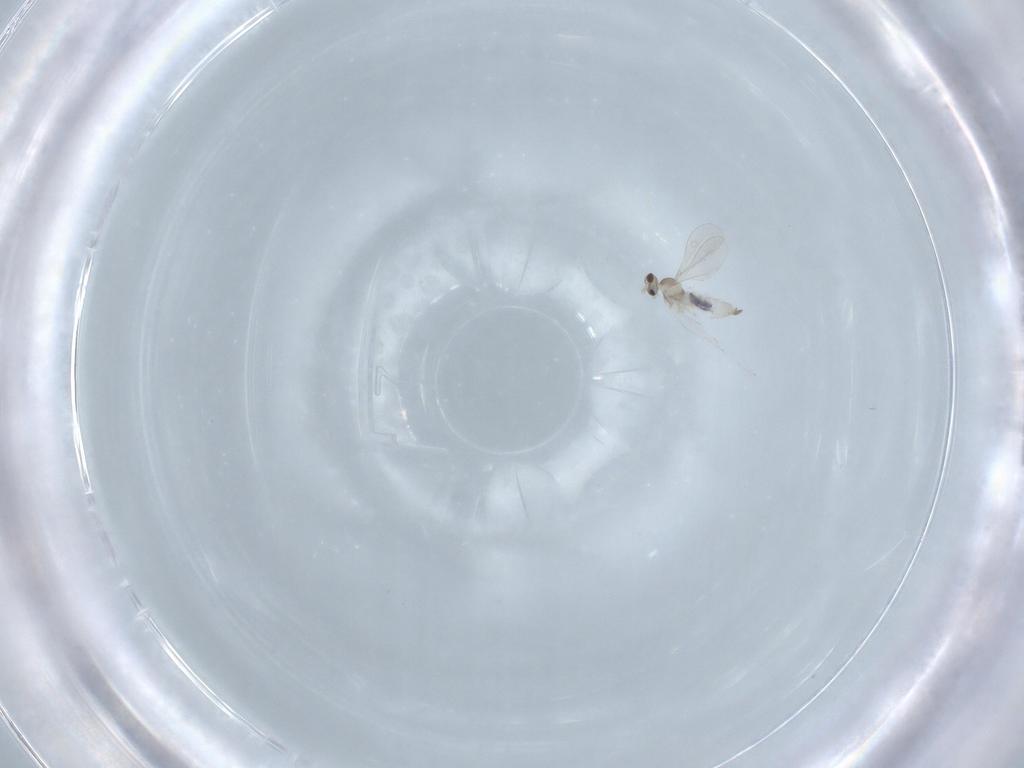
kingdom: Animalia
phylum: Arthropoda
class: Insecta
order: Diptera
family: Cecidomyiidae
